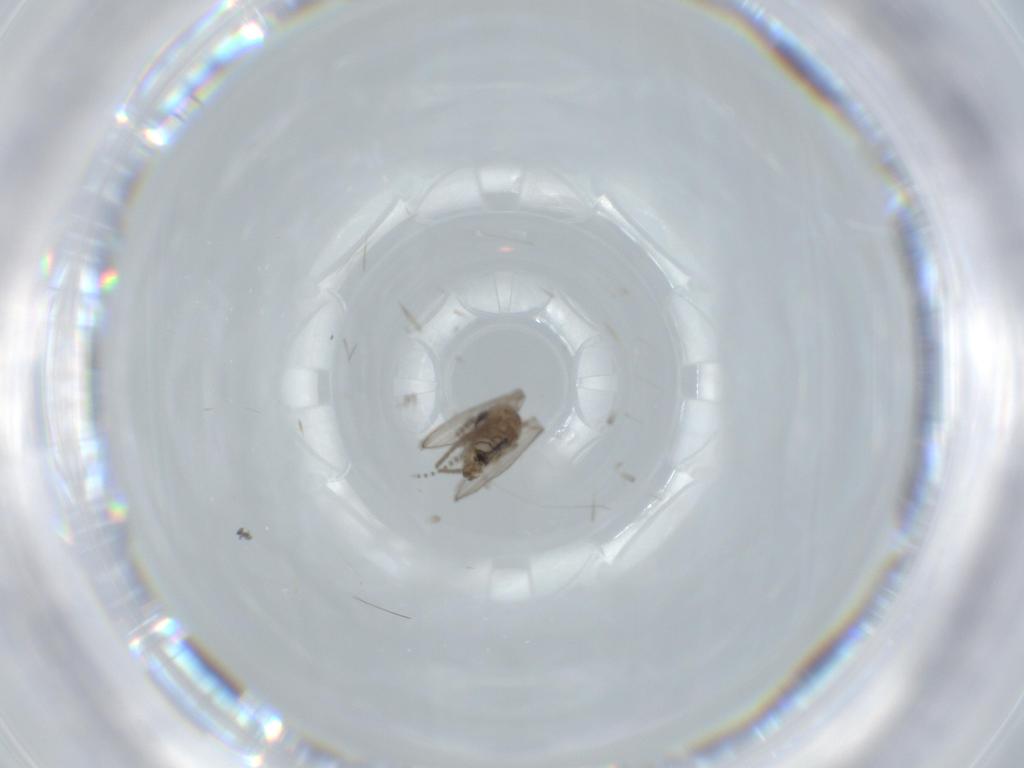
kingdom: Animalia
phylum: Arthropoda
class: Insecta
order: Diptera
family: Psychodidae
